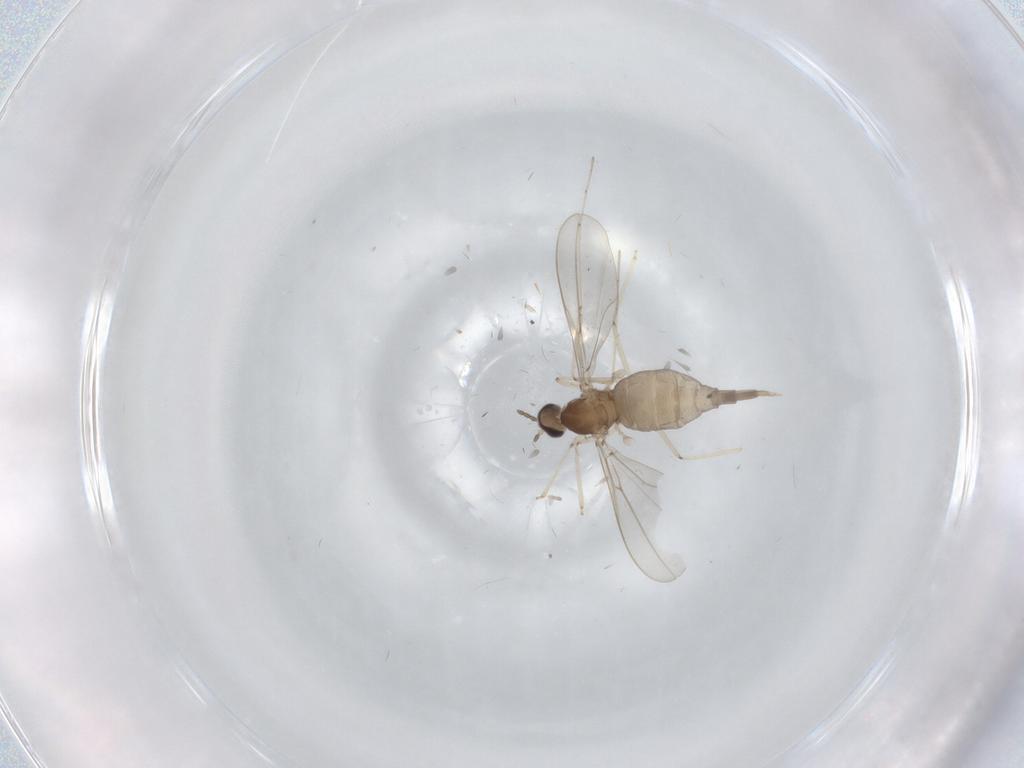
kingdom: Animalia
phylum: Arthropoda
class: Insecta
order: Diptera
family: Cecidomyiidae
